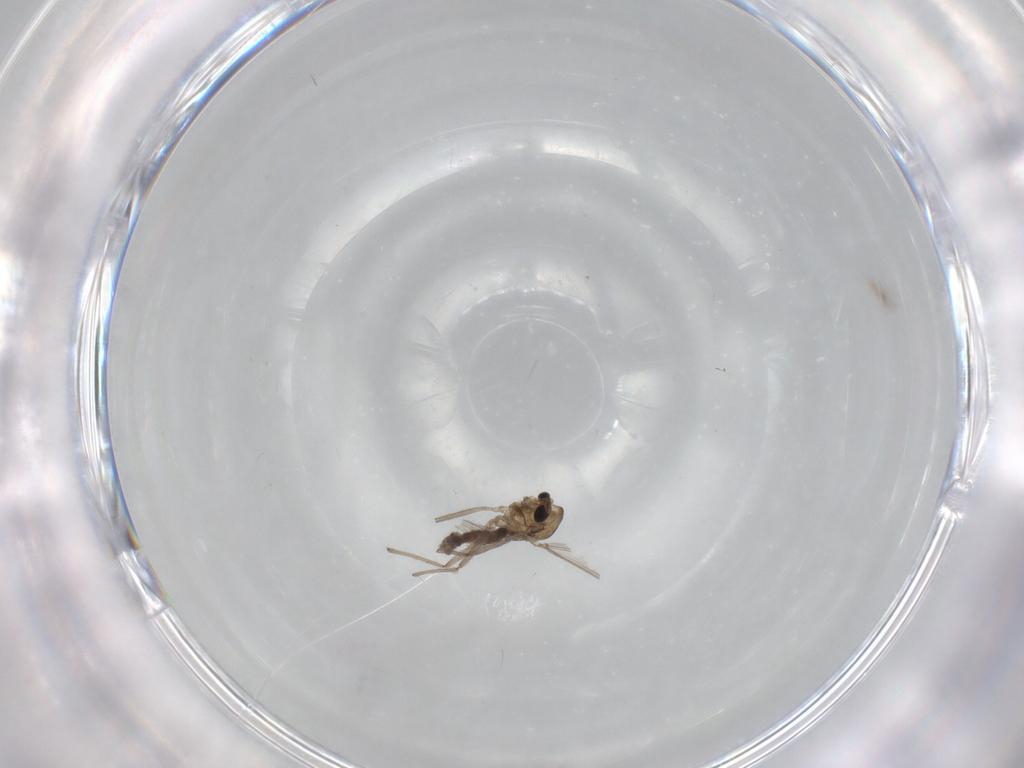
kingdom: Animalia
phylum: Arthropoda
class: Insecta
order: Diptera
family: Chironomidae
